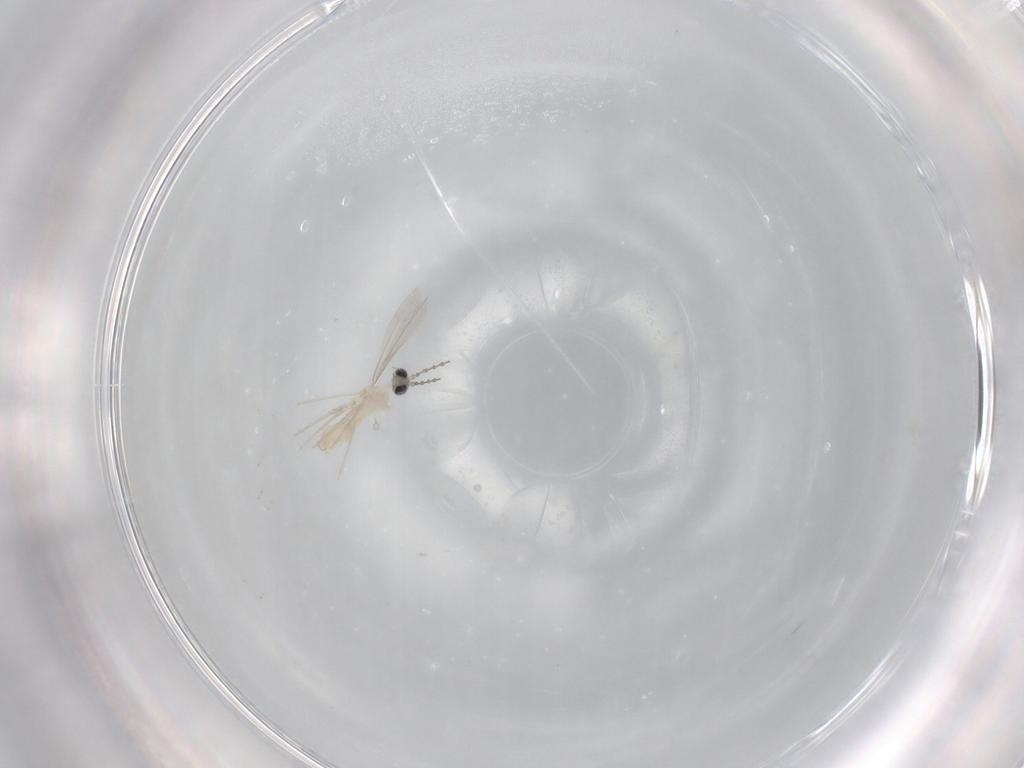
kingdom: Animalia
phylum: Arthropoda
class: Insecta
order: Diptera
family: Cecidomyiidae
